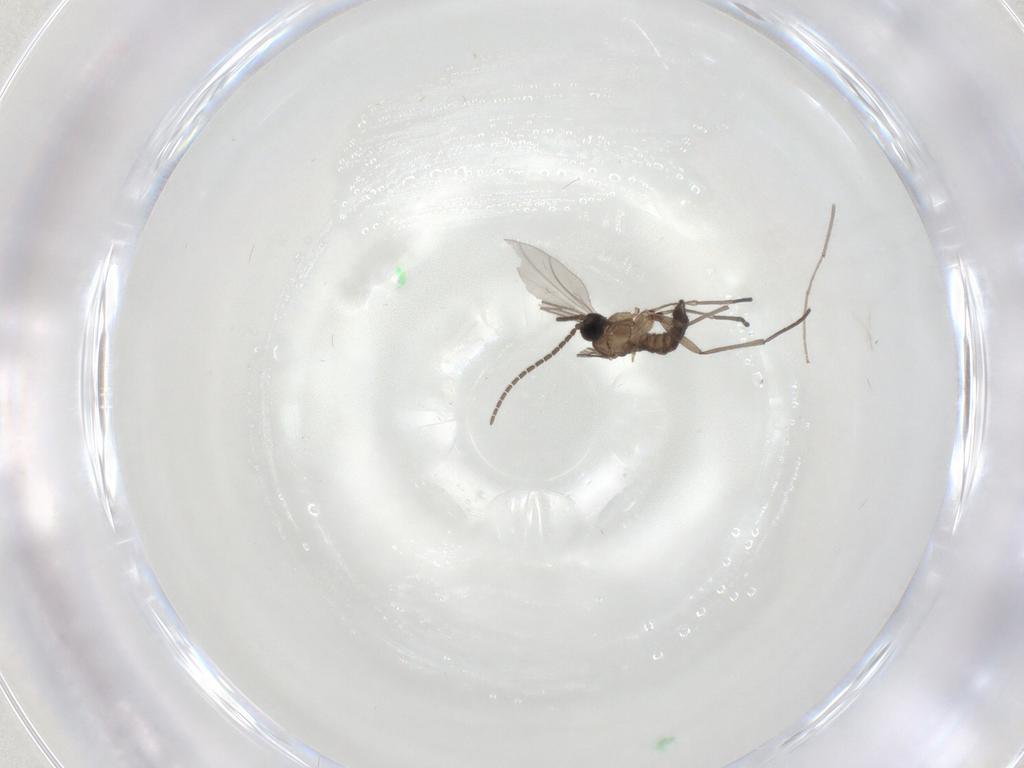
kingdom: Animalia
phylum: Arthropoda
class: Insecta
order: Diptera
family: Sciaridae
